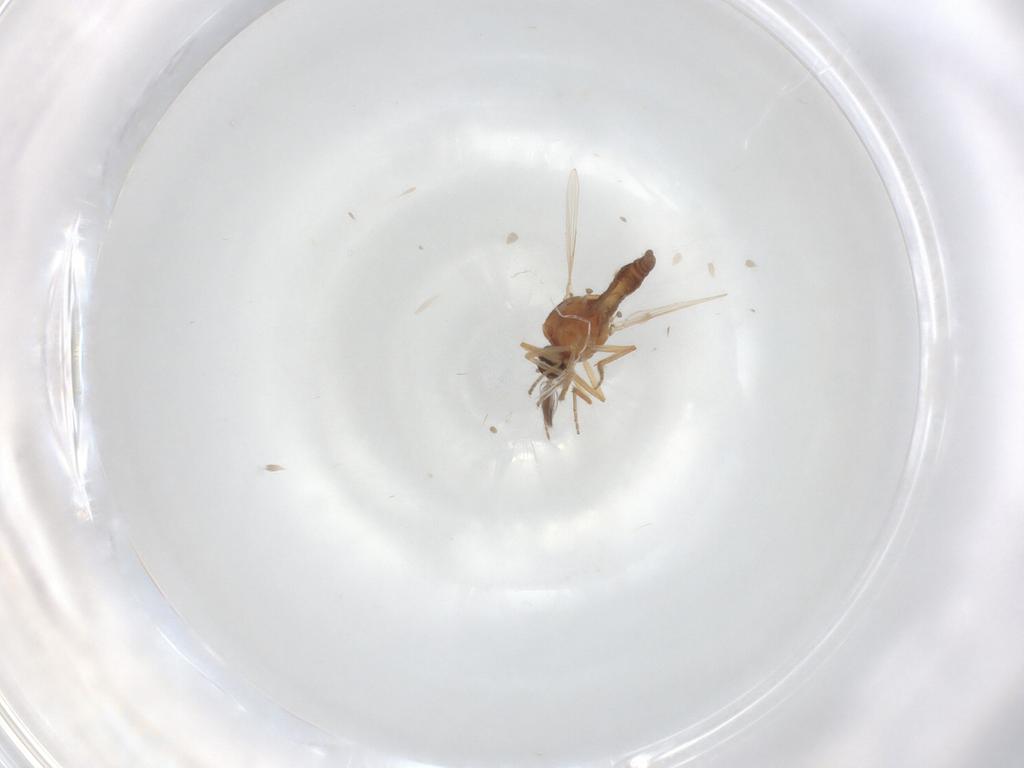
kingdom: Animalia
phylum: Arthropoda
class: Insecta
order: Diptera
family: Ceratopogonidae
